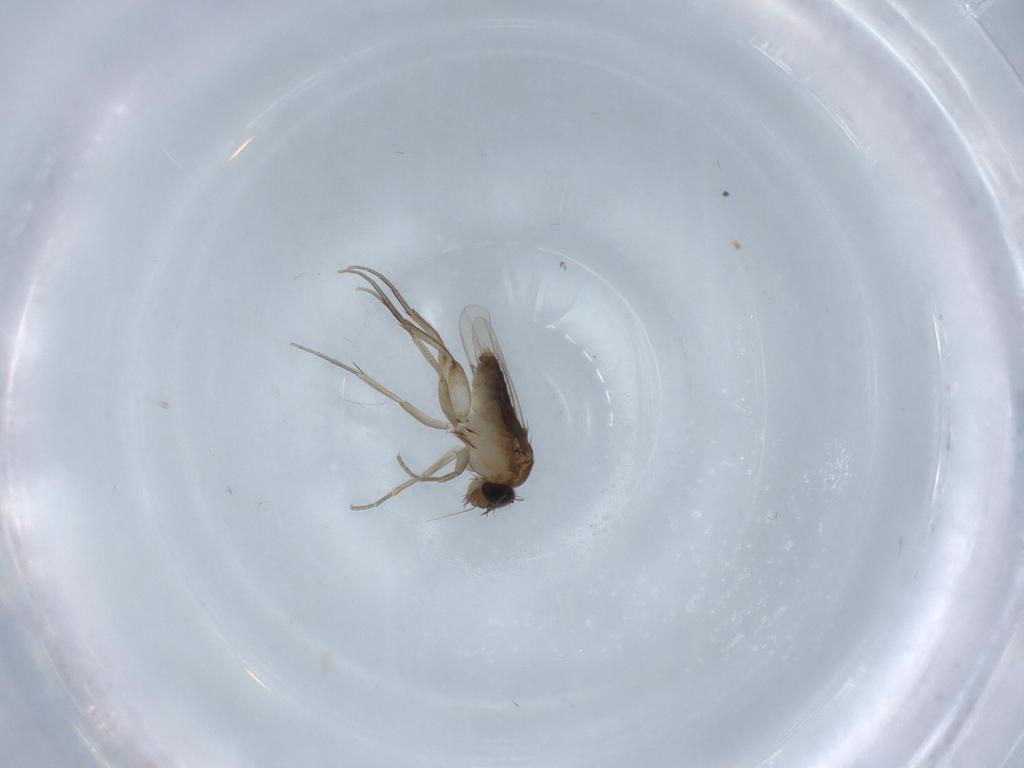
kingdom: Animalia
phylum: Arthropoda
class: Insecta
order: Diptera
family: Phoridae
